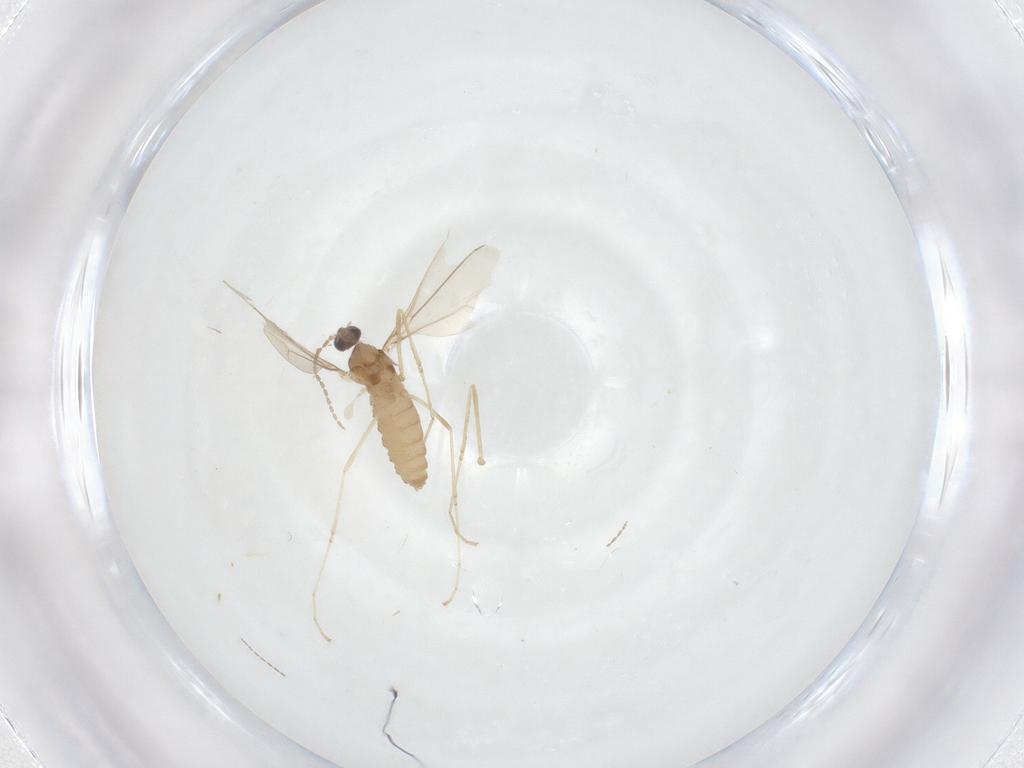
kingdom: Animalia
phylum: Arthropoda
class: Insecta
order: Diptera
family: Cecidomyiidae
